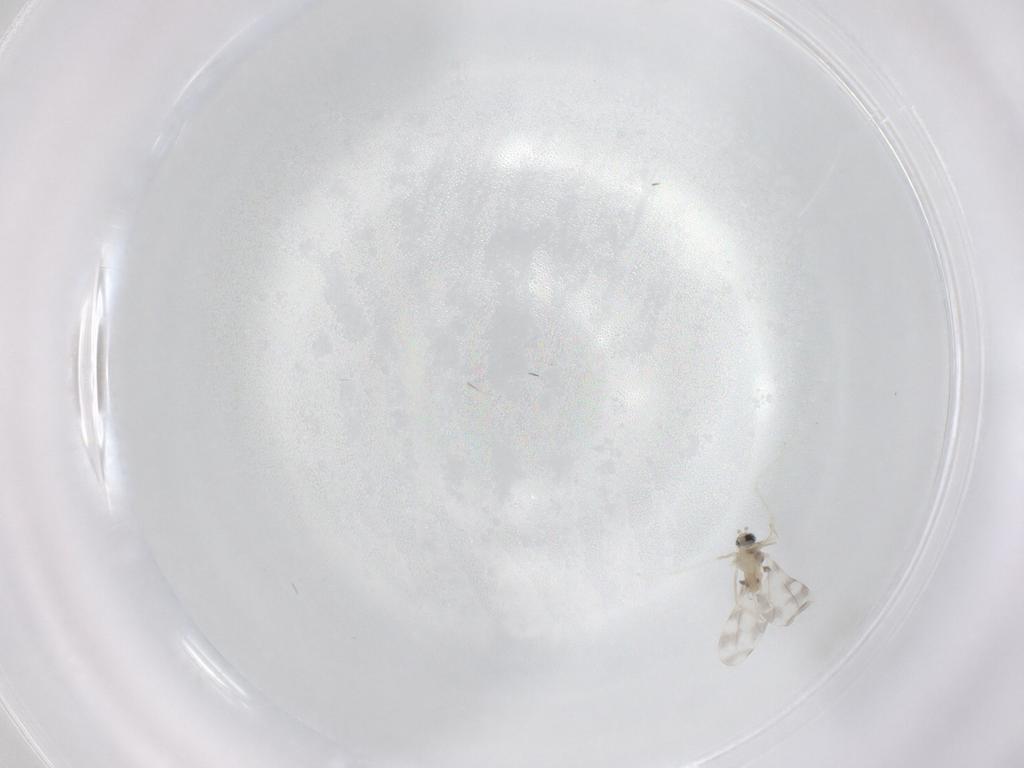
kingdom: Animalia
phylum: Arthropoda
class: Insecta
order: Diptera
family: Cecidomyiidae
